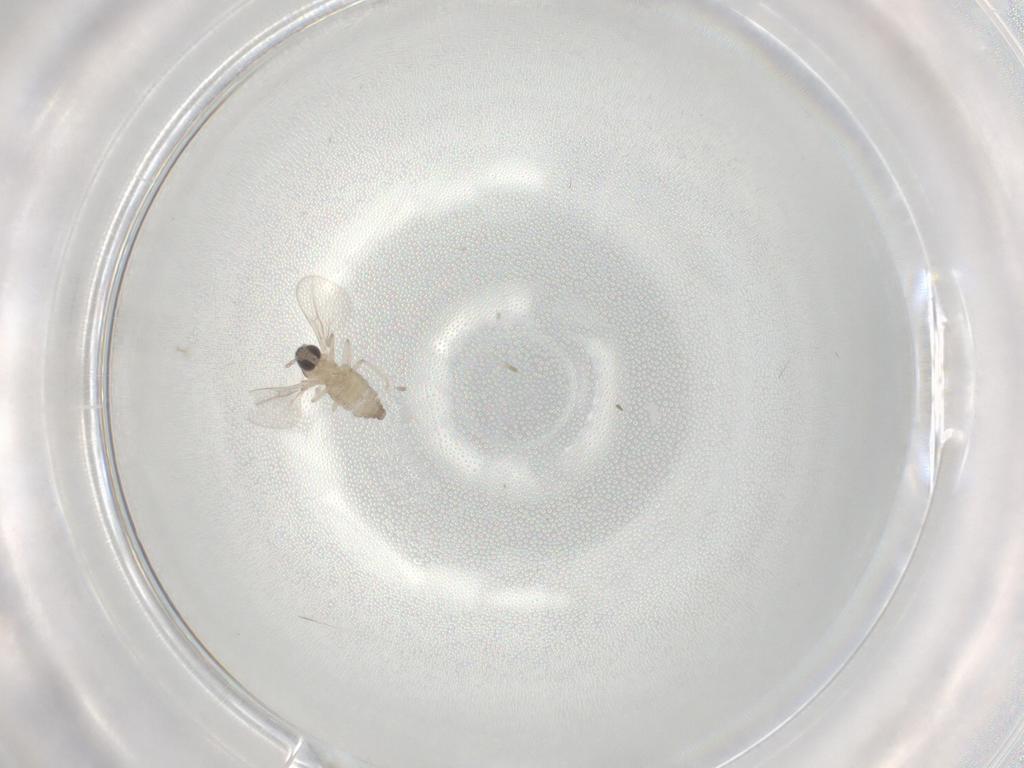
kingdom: Animalia
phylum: Arthropoda
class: Insecta
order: Diptera
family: Cecidomyiidae
